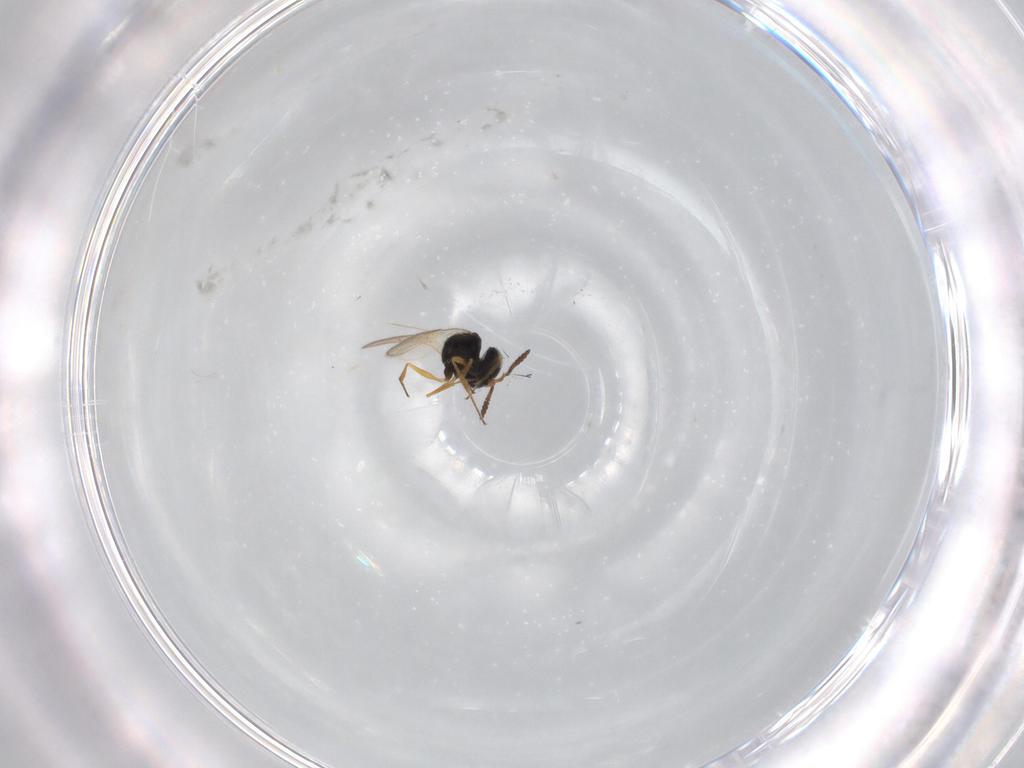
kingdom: Animalia
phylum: Arthropoda
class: Insecta
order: Hymenoptera
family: Scelionidae
